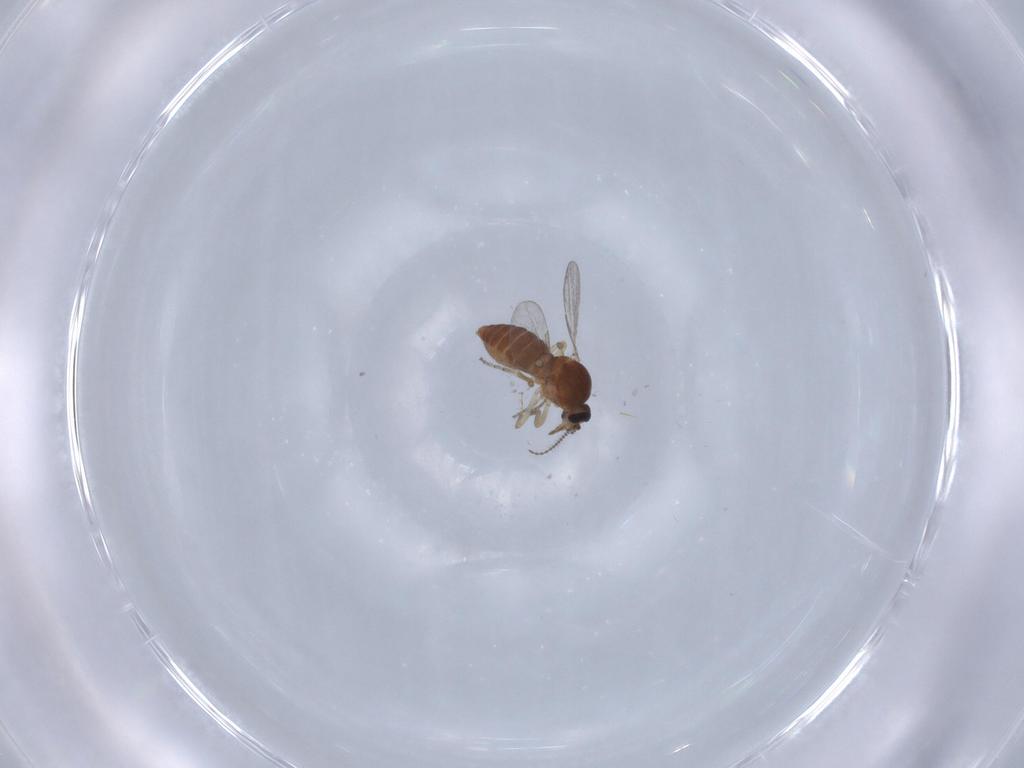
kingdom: Animalia
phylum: Arthropoda
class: Insecta
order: Diptera
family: Ceratopogonidae
